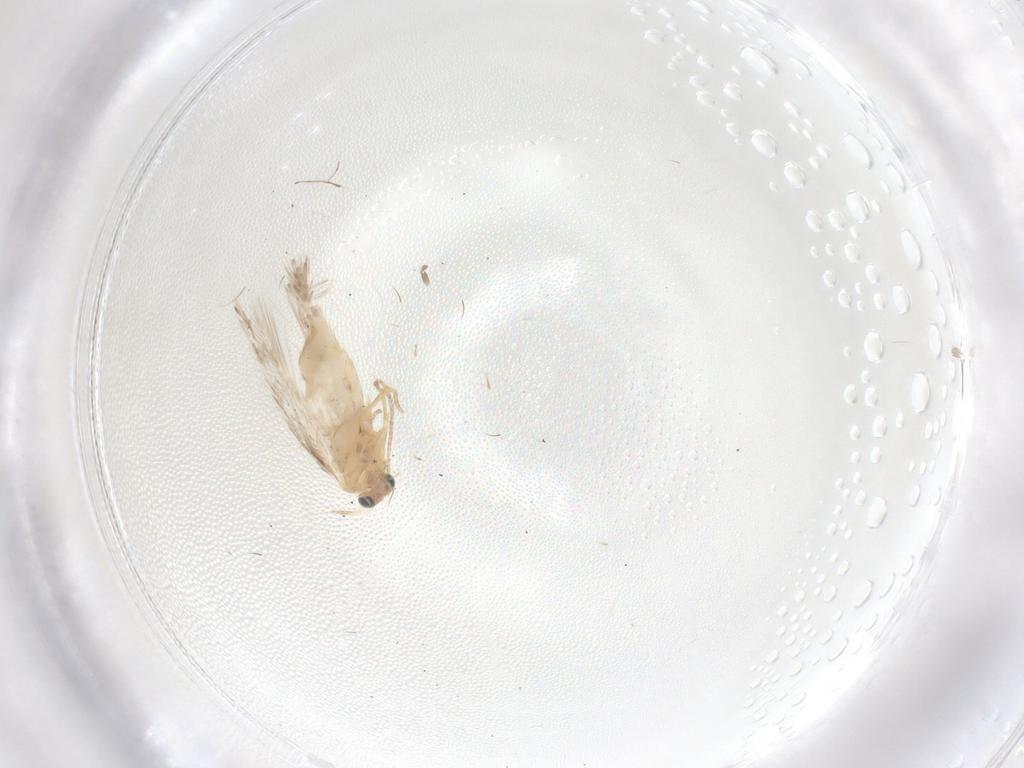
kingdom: Animalia
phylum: Arthropoda
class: Insecta
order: Lepidoptera
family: Nepticulidae
